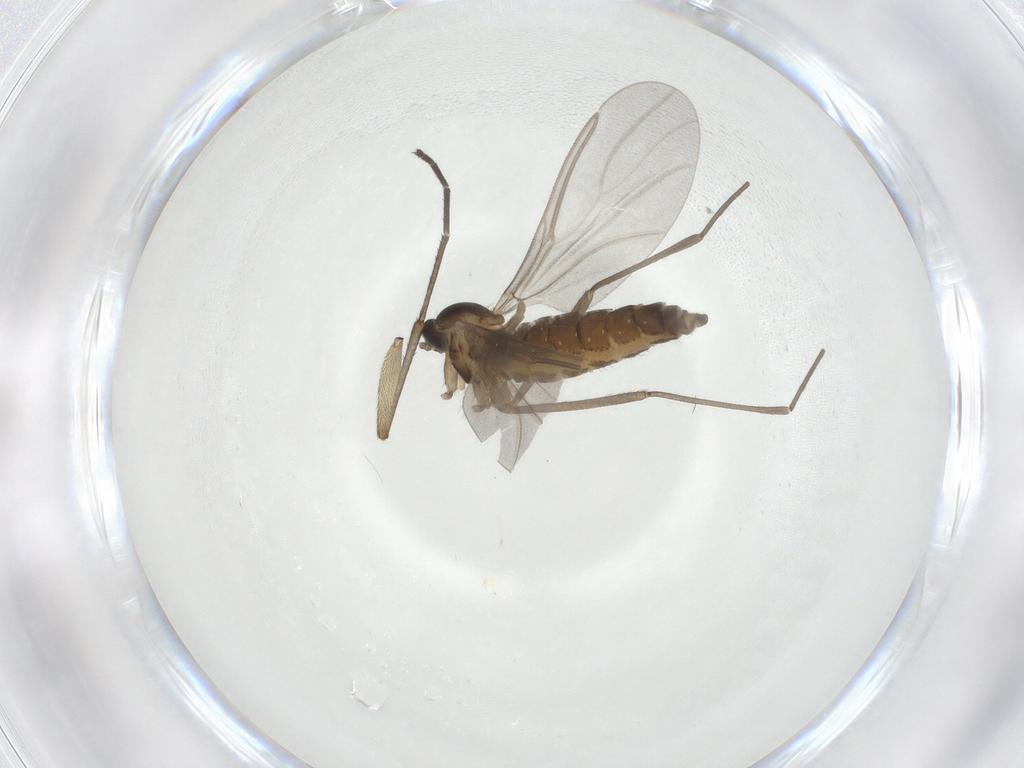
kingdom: Animalia
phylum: Arthropoda
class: Insecta
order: Diptera
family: Cecidomyiidae
